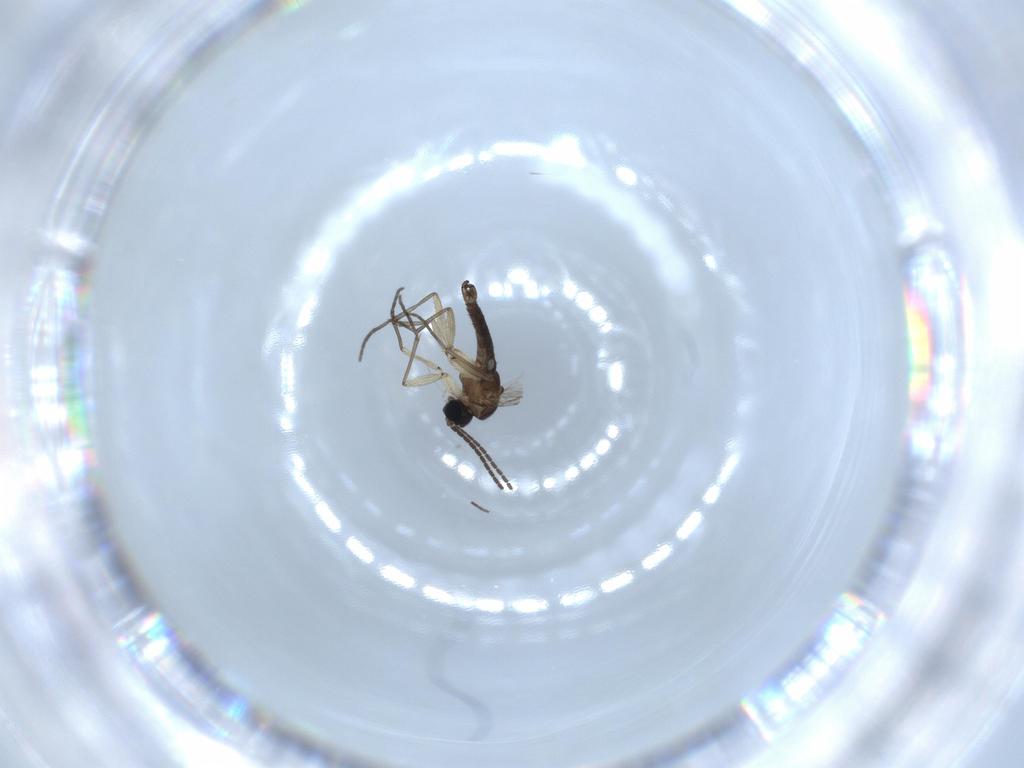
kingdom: Animalia
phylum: Arthropoda
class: Insecta
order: Diptera
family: Sciaridae
